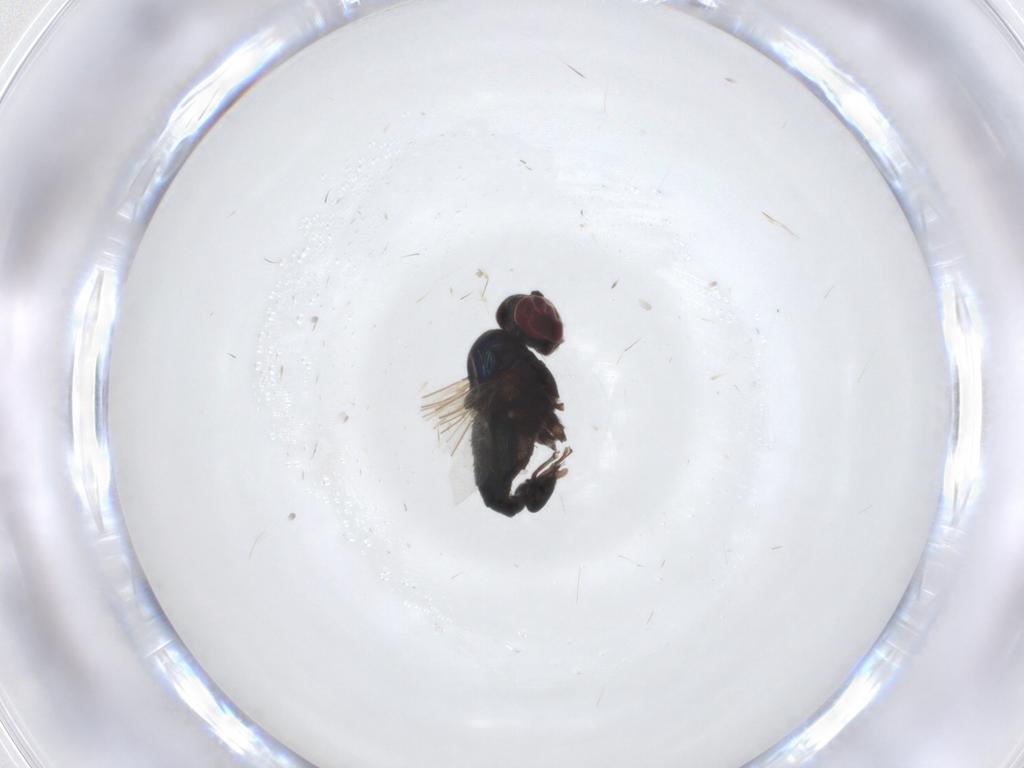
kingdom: Animalia
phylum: Arthropoda
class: Insecta
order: Diptera
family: Dolichopodidae
